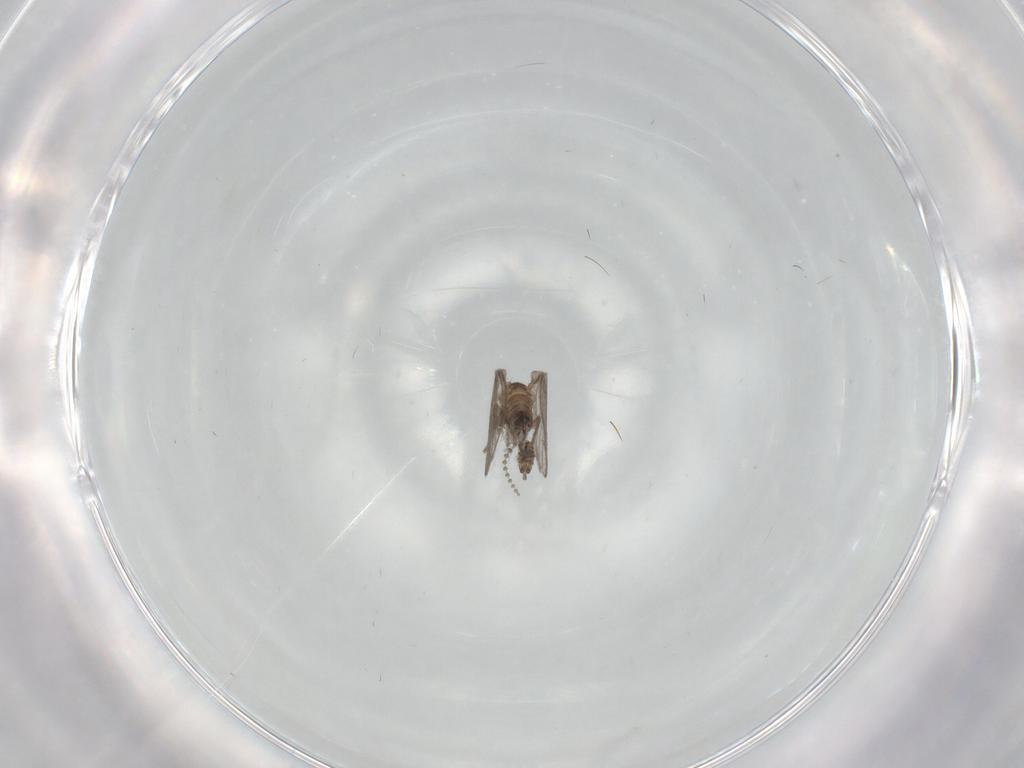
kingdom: Animalia
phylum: Arthropoda
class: Insecta
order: Diptera
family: Psychodidae
